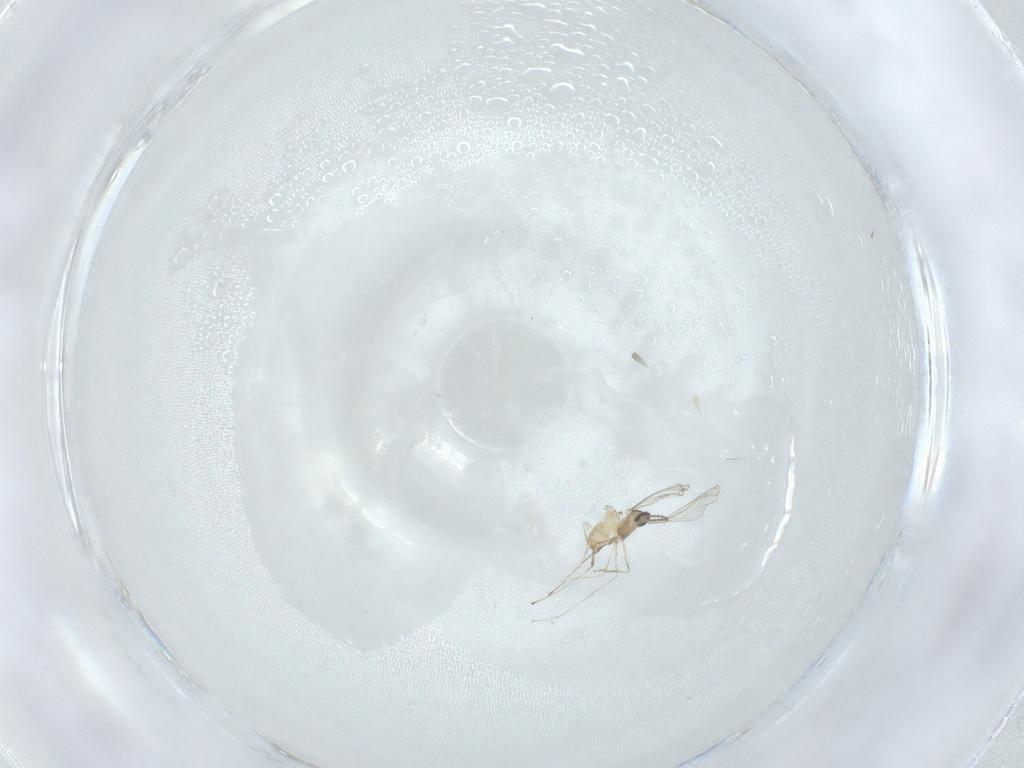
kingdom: Animalia
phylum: Arthropoda
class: Insecta
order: Diptera
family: Cecidomyiidae
